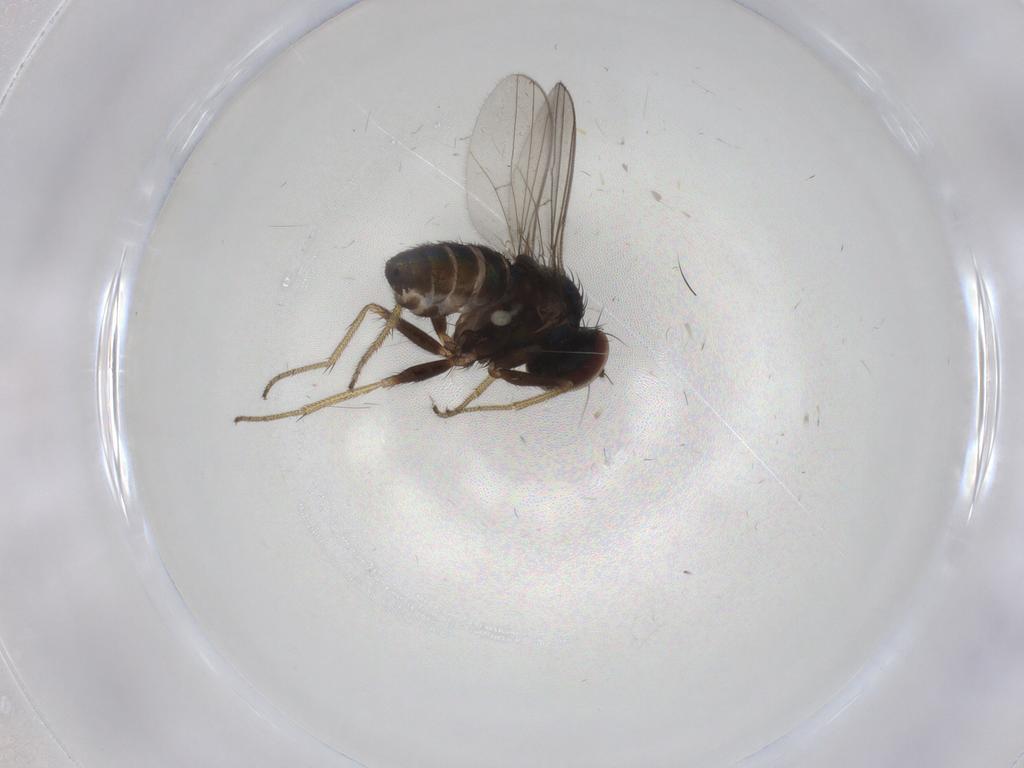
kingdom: Animalia
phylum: Arthropoda
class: Insecta
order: Diptera
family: Dolichopodidae
